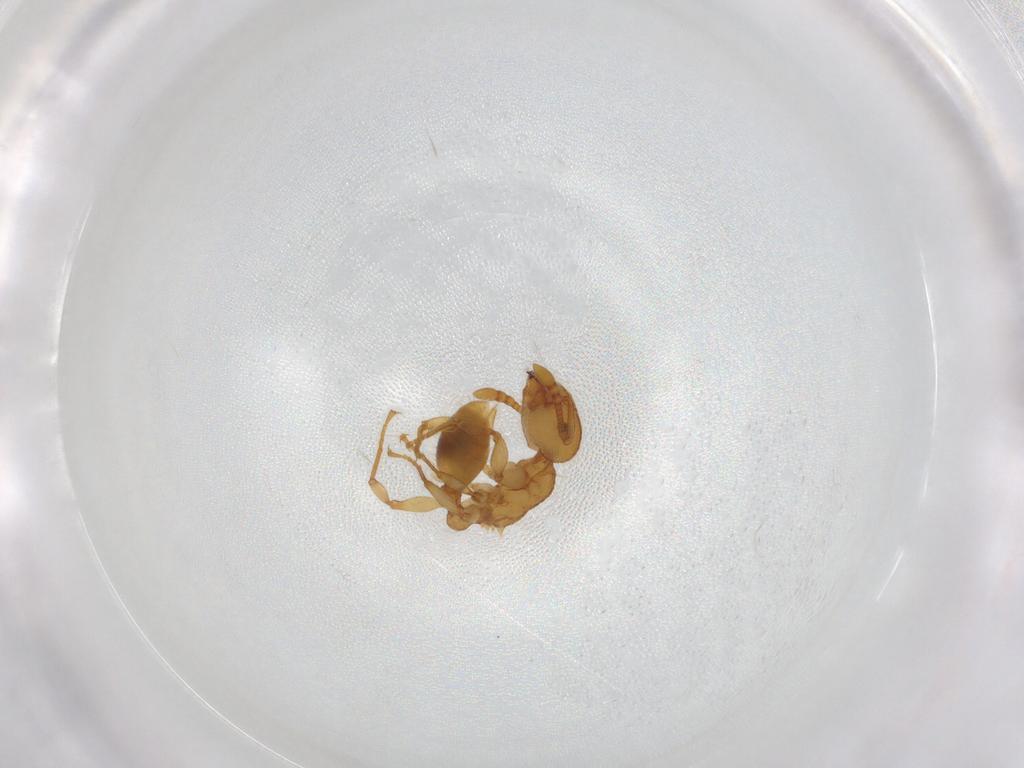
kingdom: Animalia
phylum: Arthropoda
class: Insecta
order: Hymenoptera
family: Formicidae
